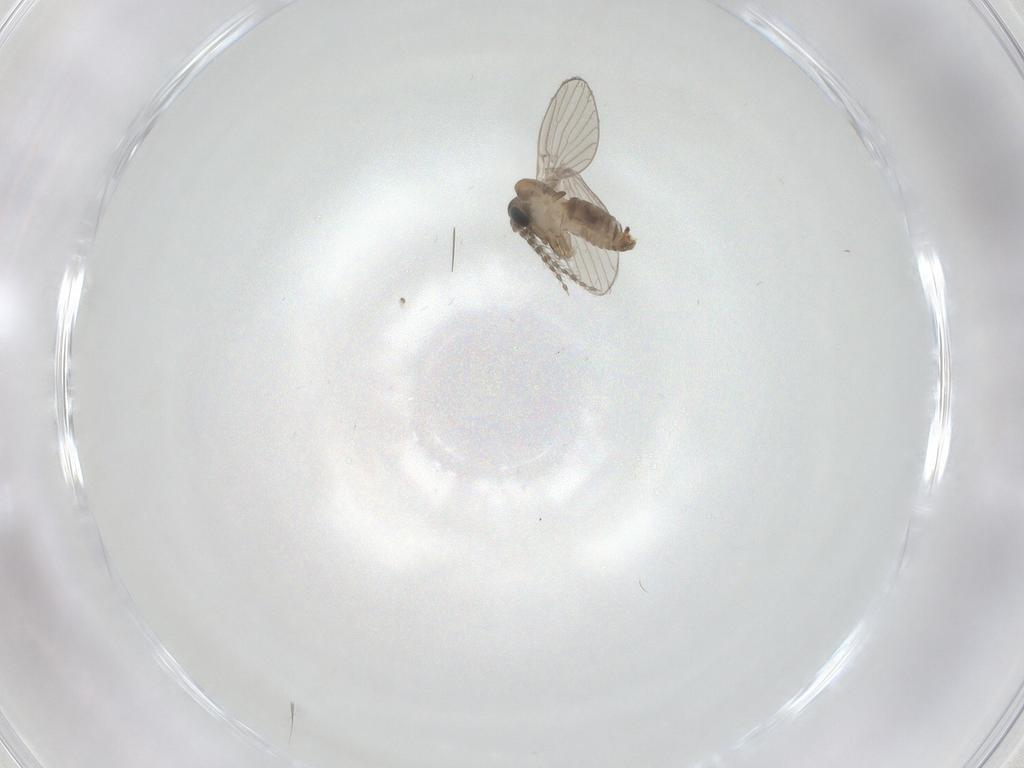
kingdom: Animalia
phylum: Arthropoda
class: Insecta
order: Diptera
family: Psychodidae
